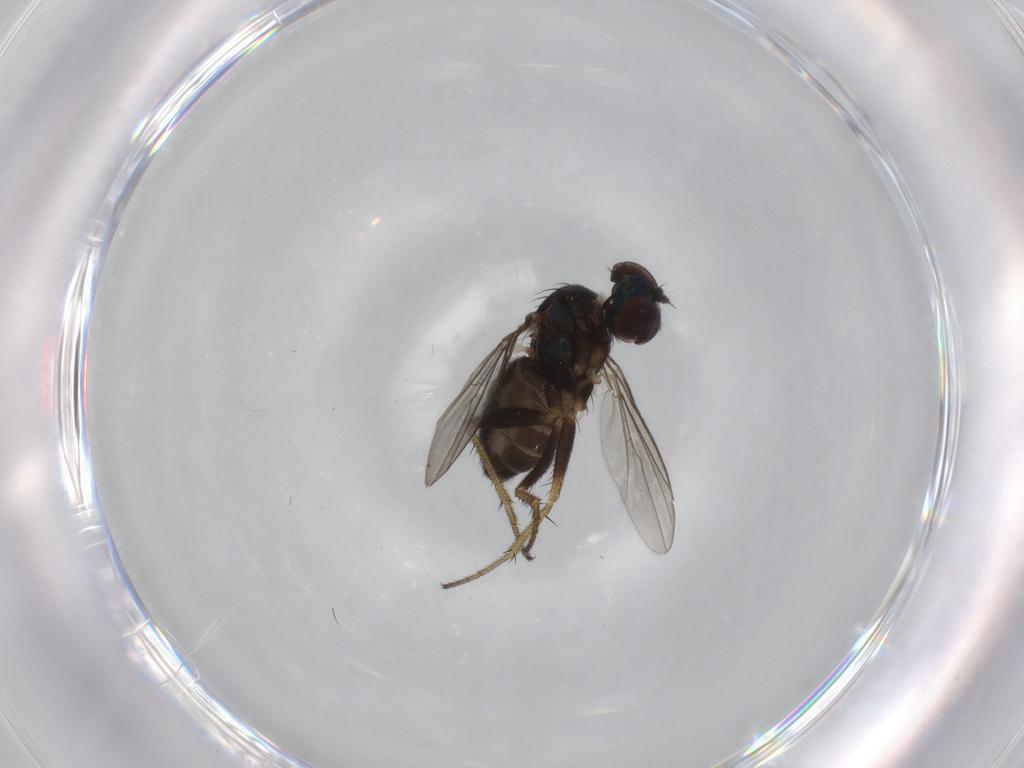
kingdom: Animalia
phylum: Arthropoda
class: Insecta
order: Diptera
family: Dolichopodidae
